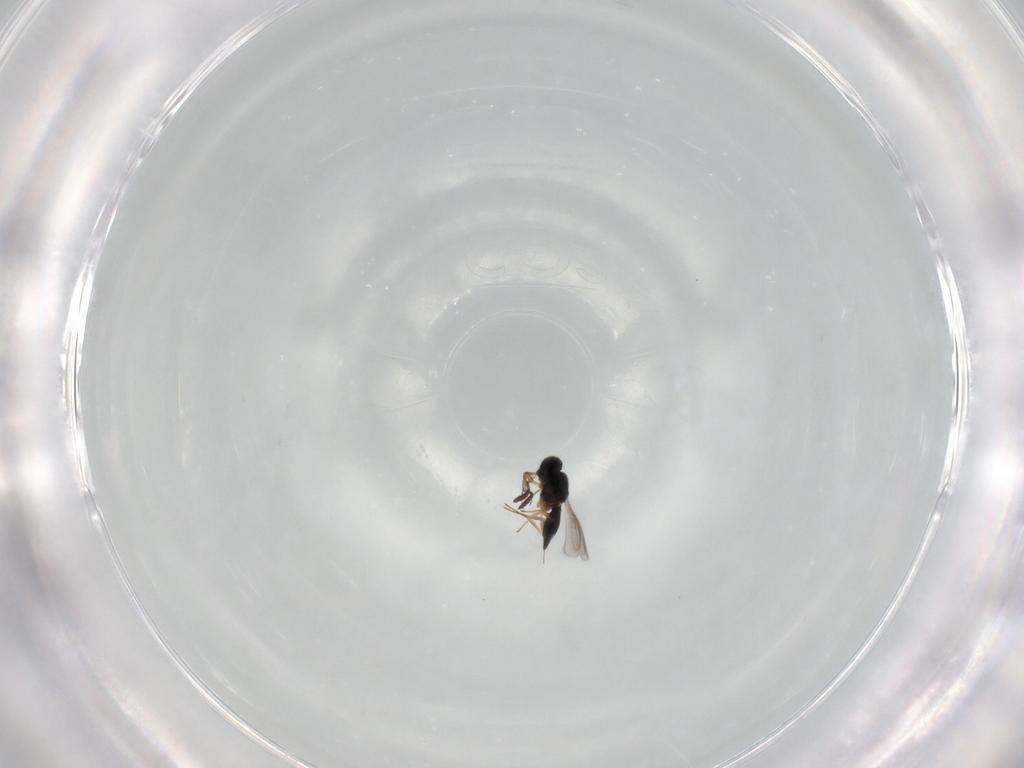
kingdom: Animalia
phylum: Arthropoda
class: Insecta
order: Hymenoptera
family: Scelionidae
